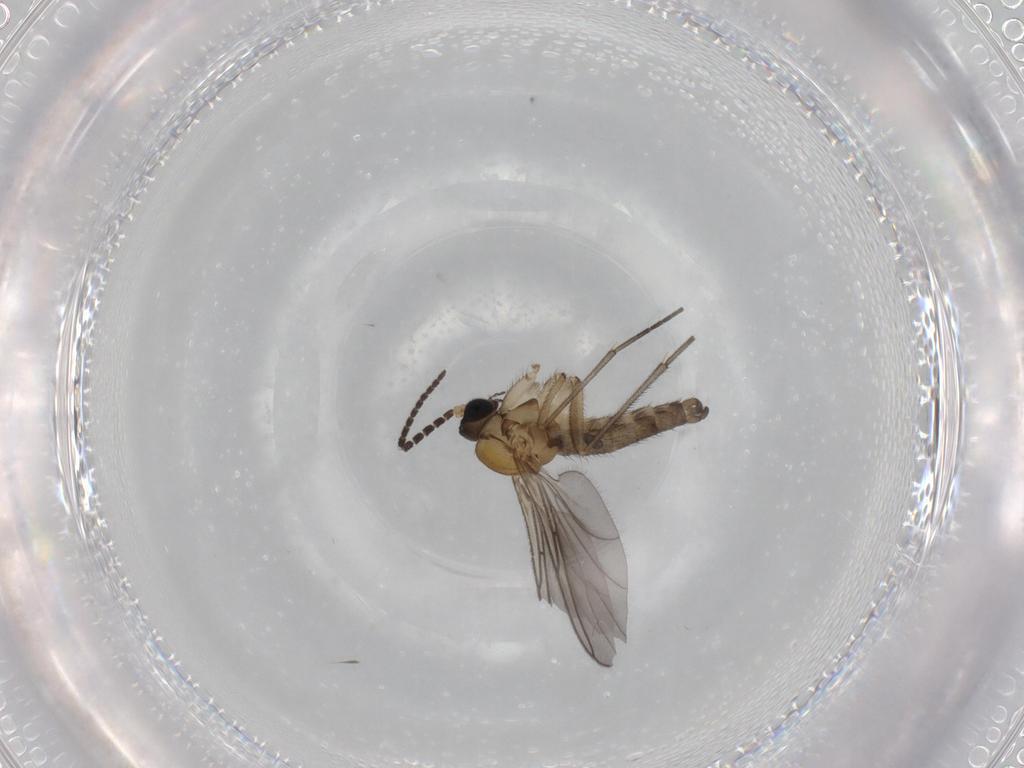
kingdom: Animalia
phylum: Arthropoda
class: Insecta
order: Diptera
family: Sciaridae
